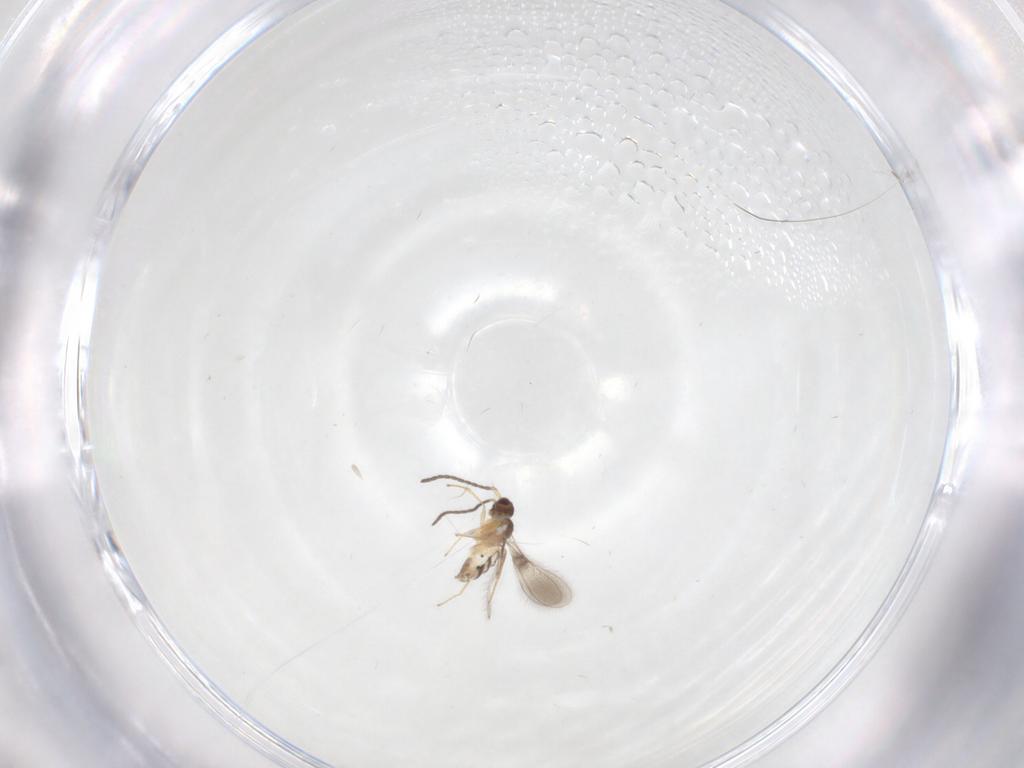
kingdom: Animalia
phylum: Arthropoda
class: Insecta
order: Hymenoptera
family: Mymaridae
